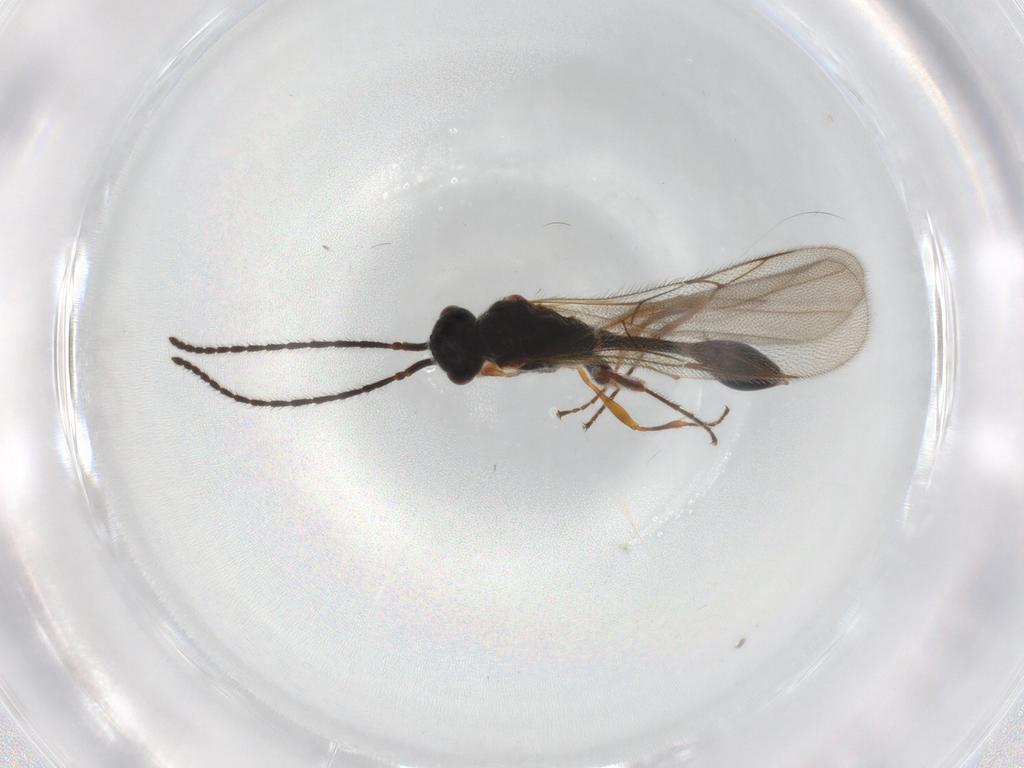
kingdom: Animalia
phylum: Arthropoda
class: Insecta
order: Hymenoptera
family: Diapriidae
